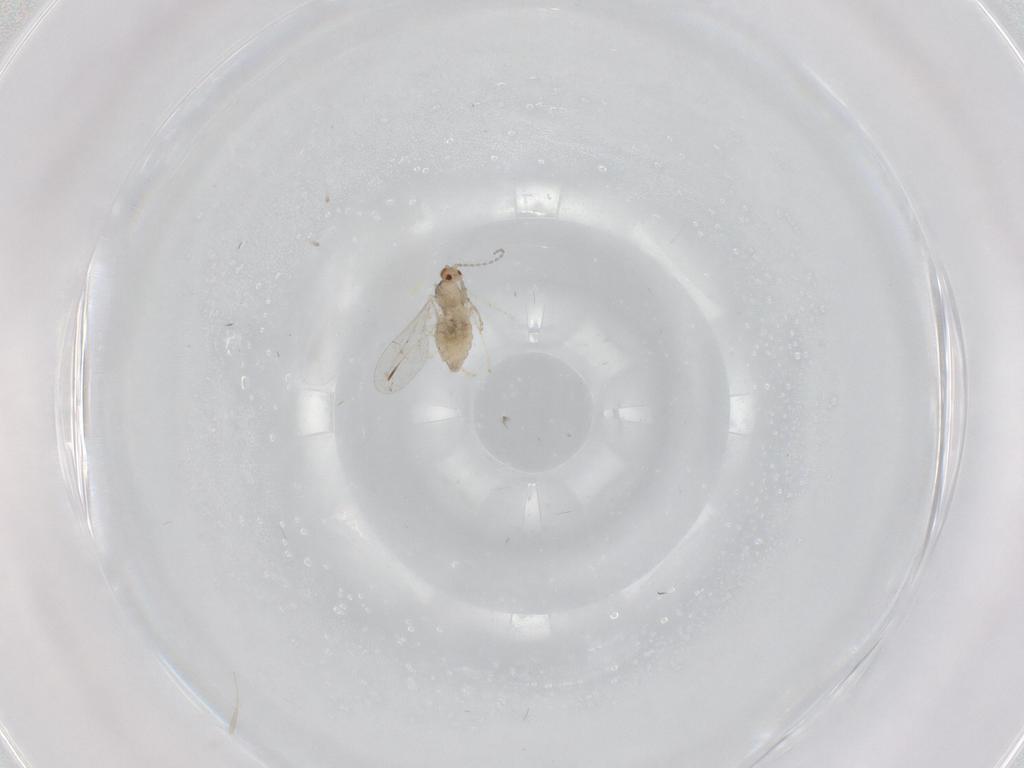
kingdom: Animalia
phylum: Arthropoda
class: Insecta
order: Diptera
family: Cecidomyiidae
